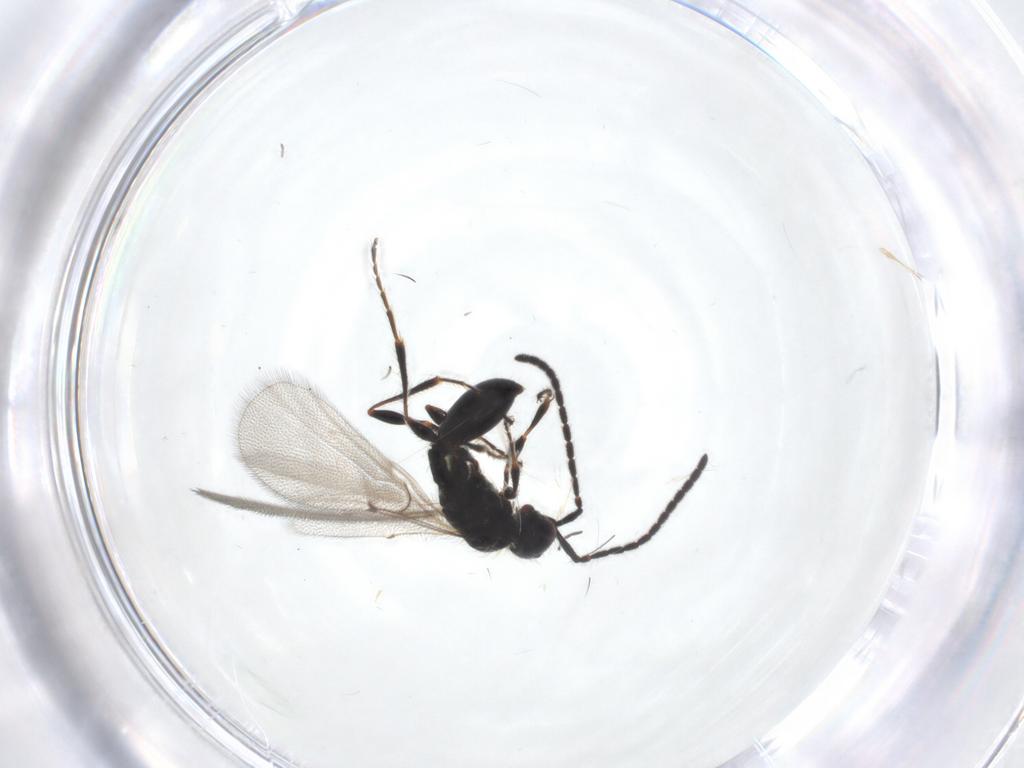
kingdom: Animalia
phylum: Arthropoda
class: Insecta
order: Hymenoptera
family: Diapriidae
